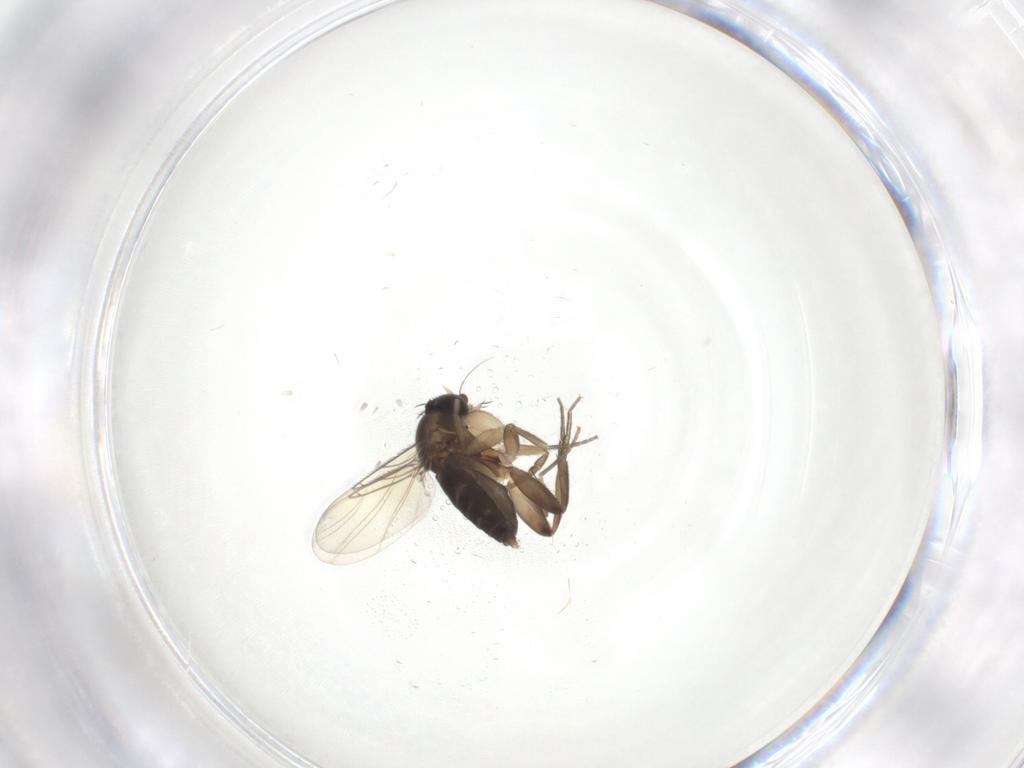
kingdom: Animalia
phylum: Arthropoda
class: Insecta
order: Diptera
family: Phoridae
